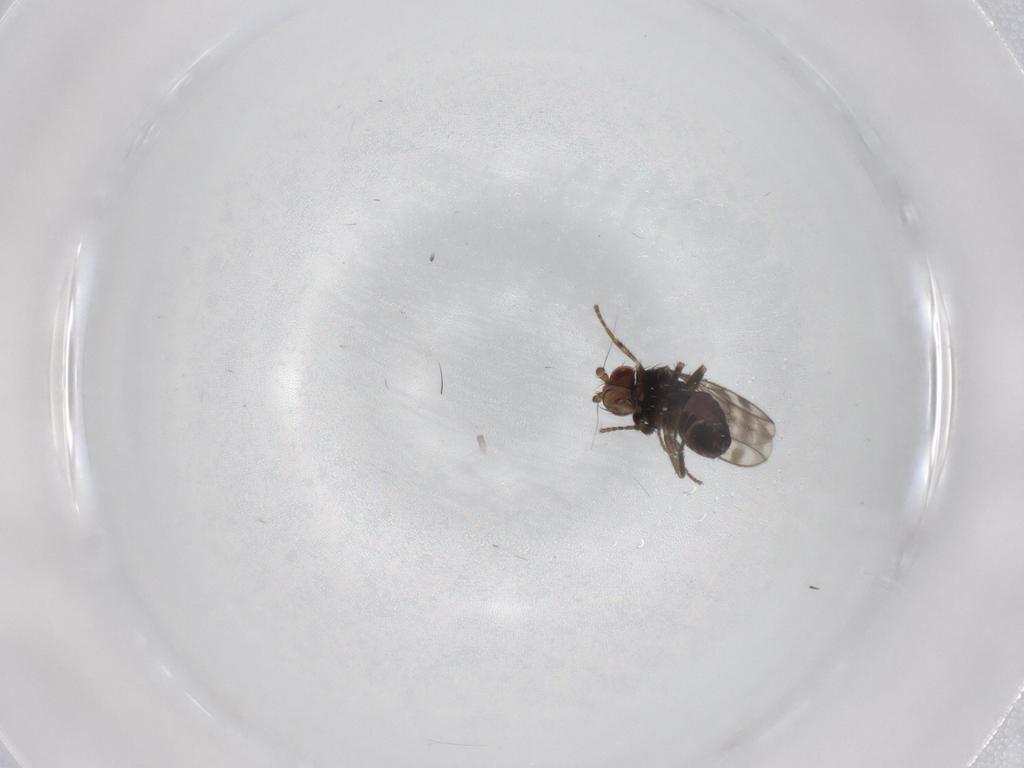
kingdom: Animalia
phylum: Arthropoda
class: Insecta
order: Diptera
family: Sphaeroceridae
